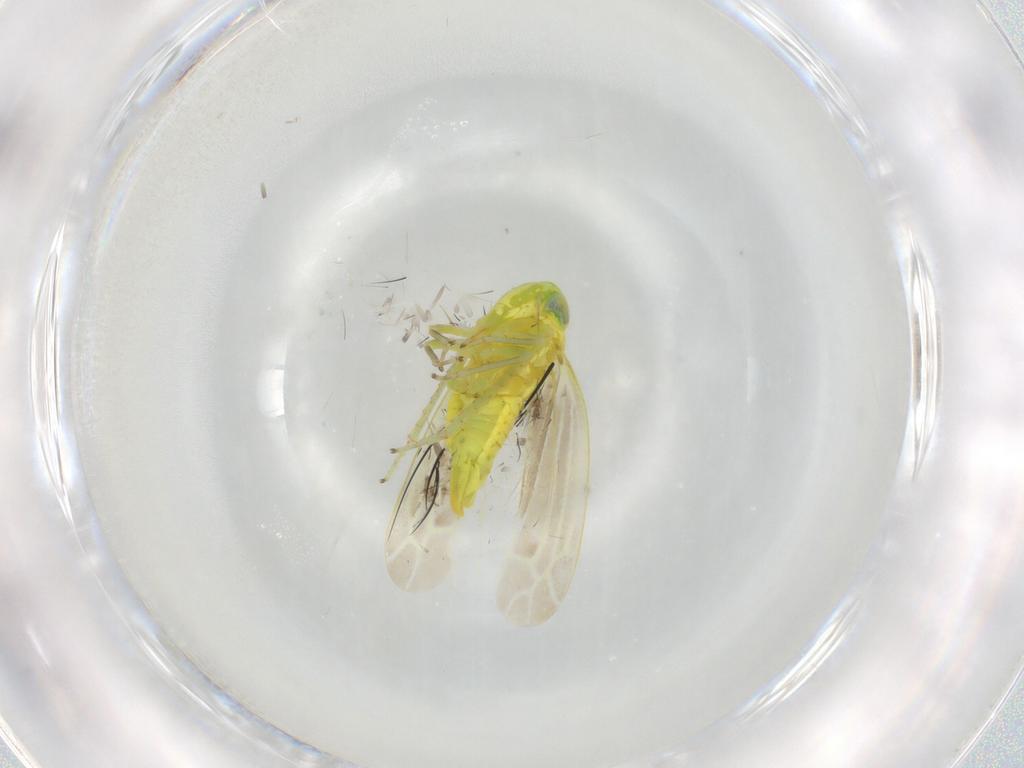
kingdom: Animalia
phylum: Arthropoda
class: Insecta
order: Hemiptera
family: Cicadellidae
